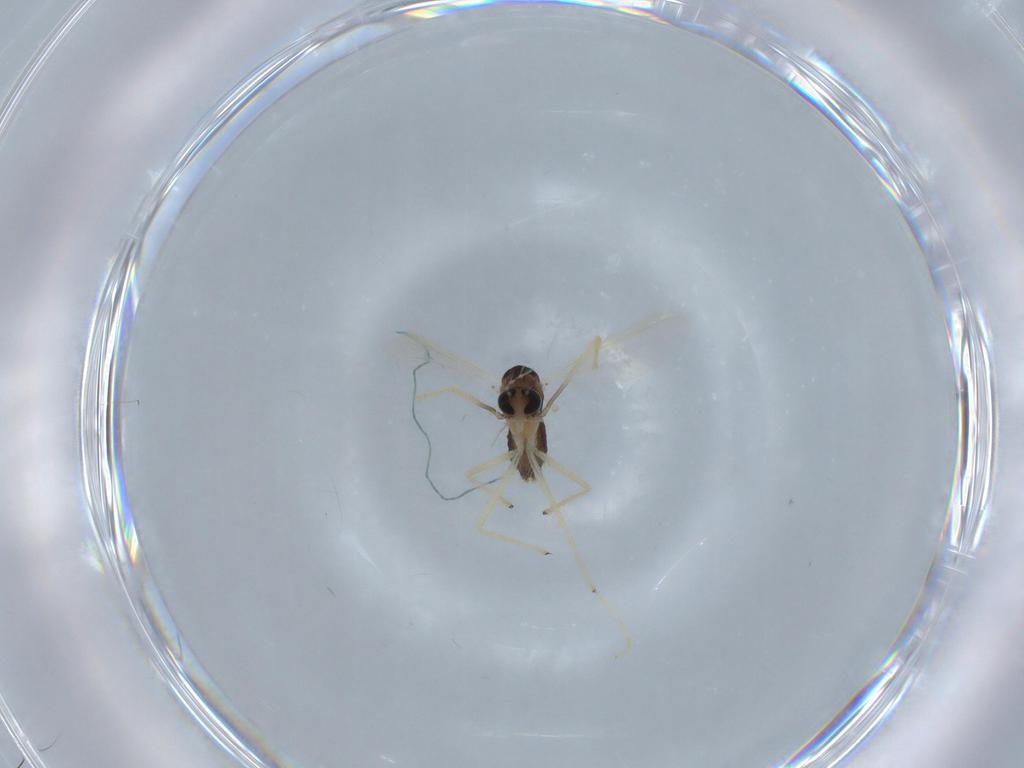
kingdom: Animalia
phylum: Arthropoda
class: Insecta
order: Diptera
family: Chironomidae
